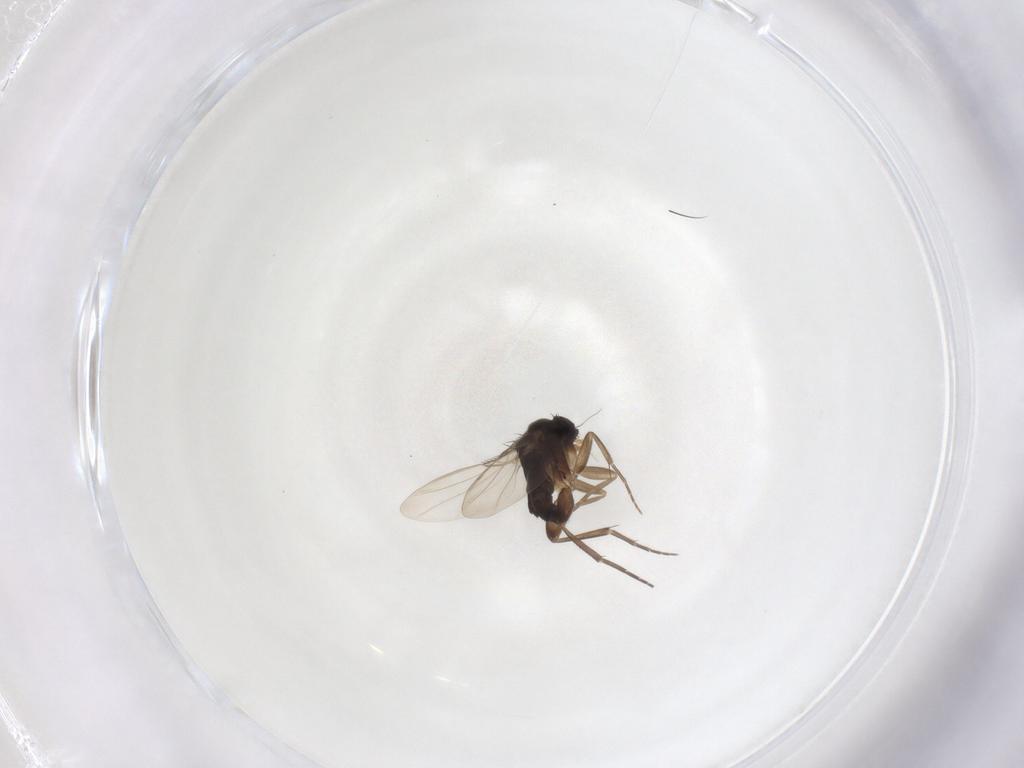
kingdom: Animalia
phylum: Arthropoda
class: Insecta
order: Diptera
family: Phoridae
